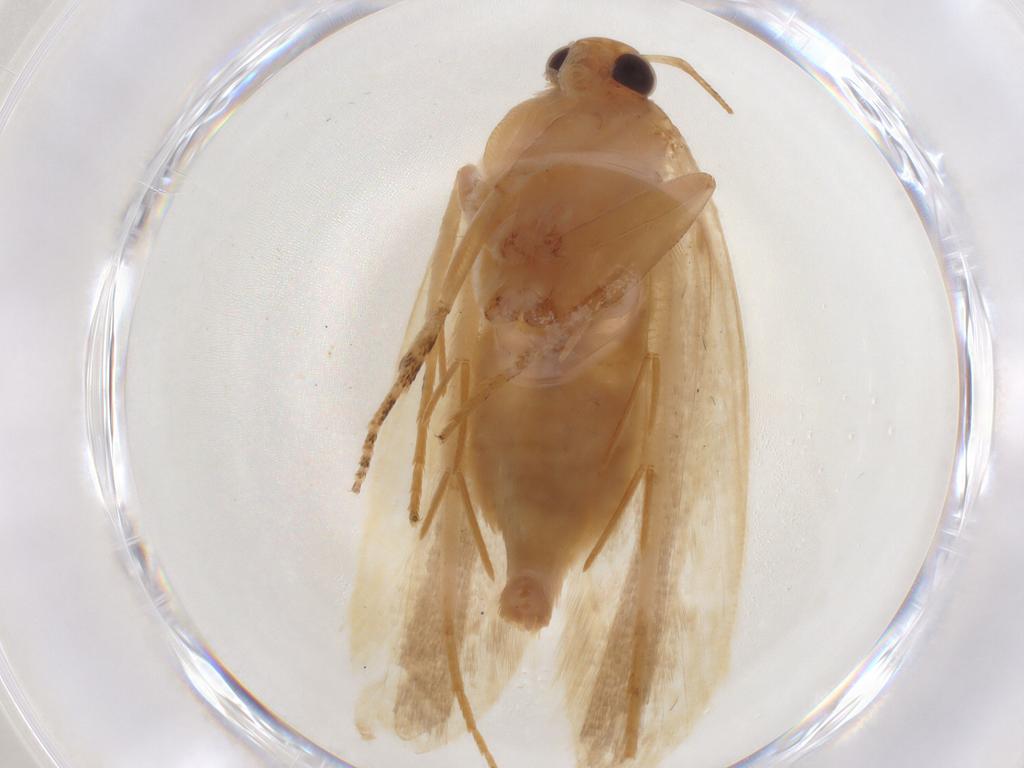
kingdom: Animalia
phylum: Arthropoda
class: Insecta
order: Lepidoptera
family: Gelechiidae
